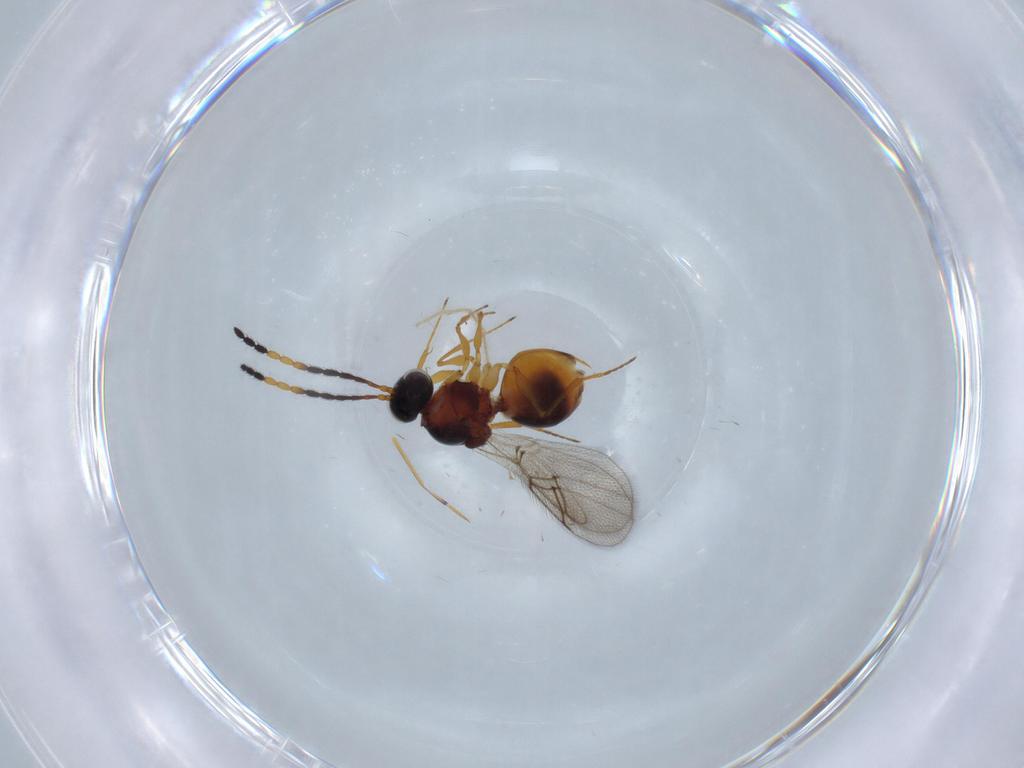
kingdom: Animalia
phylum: Arthropoda
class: Insecta
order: Hymenoptera
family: Figitidae
